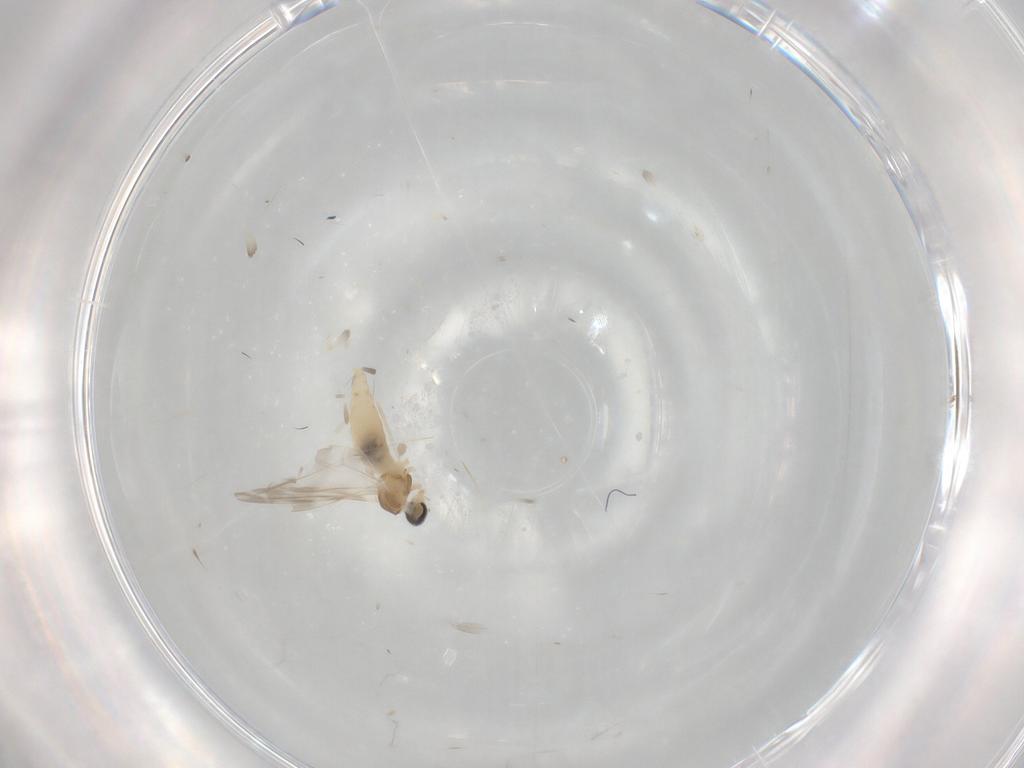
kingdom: Animalia
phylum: Arthropoda
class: Insecta
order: Diptera
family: Cecidomyiidae
